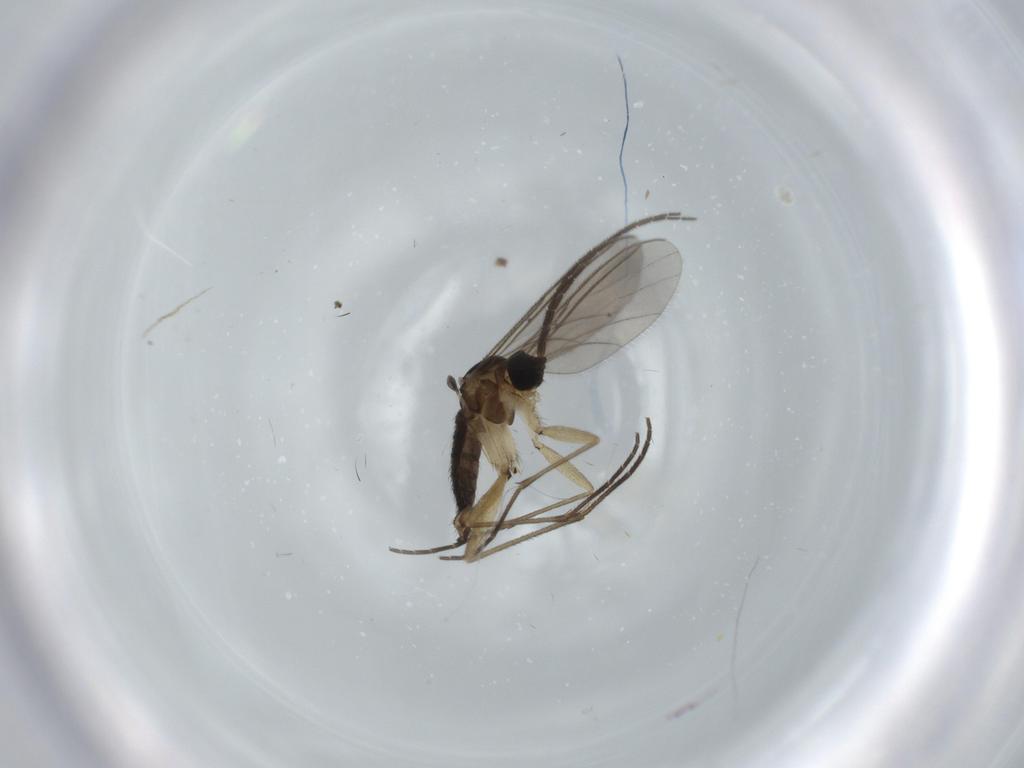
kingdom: Animalia
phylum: Arthropoda
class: Insecta
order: Diptera
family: Sciaridae
